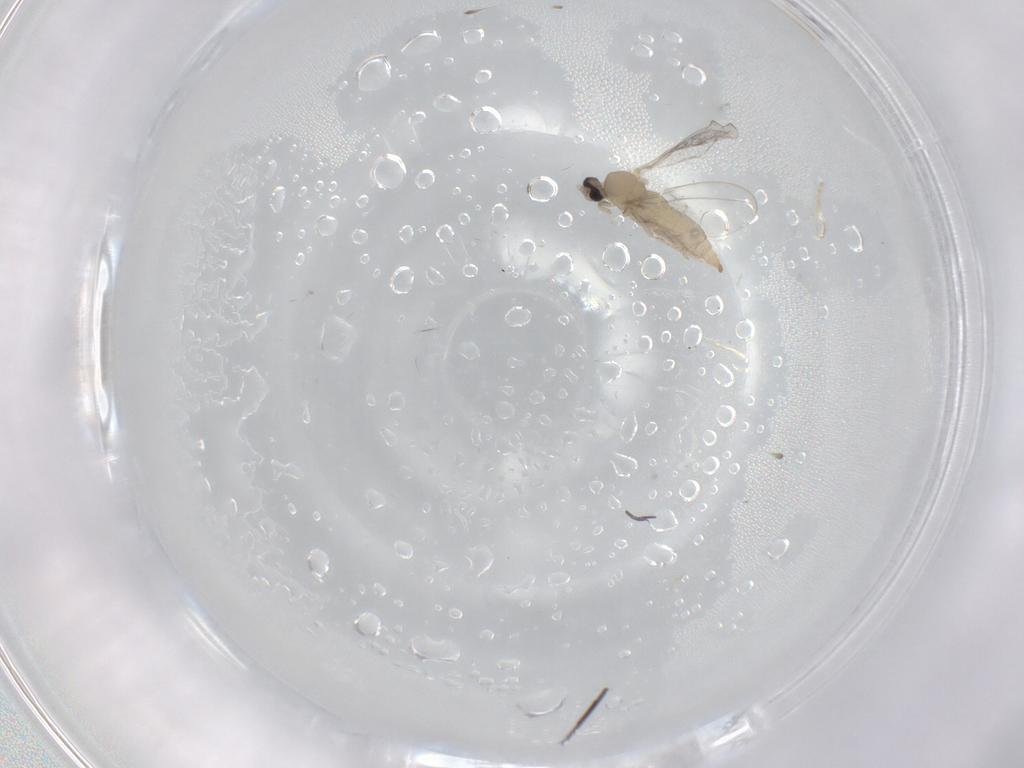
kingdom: Animalia
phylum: Arthropoda
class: Insecta
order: Diptera
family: Cecidomyiidae
